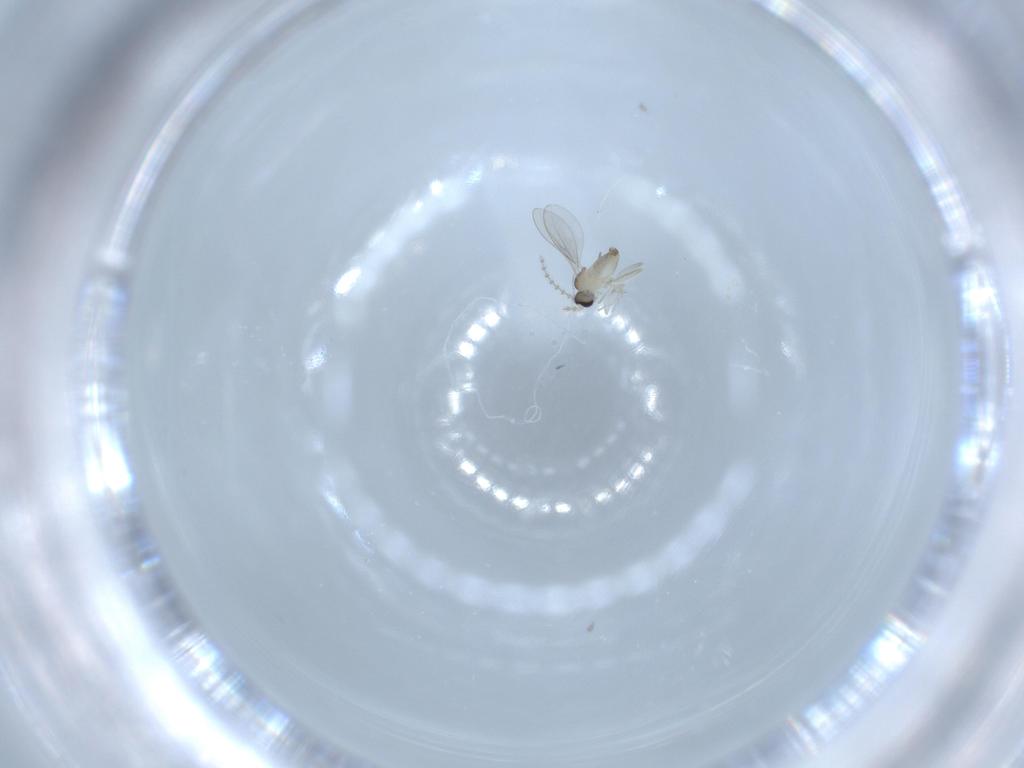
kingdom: Animalia
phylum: Arthropoda
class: Insecta
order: Diptera
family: Cecidomyiidae
